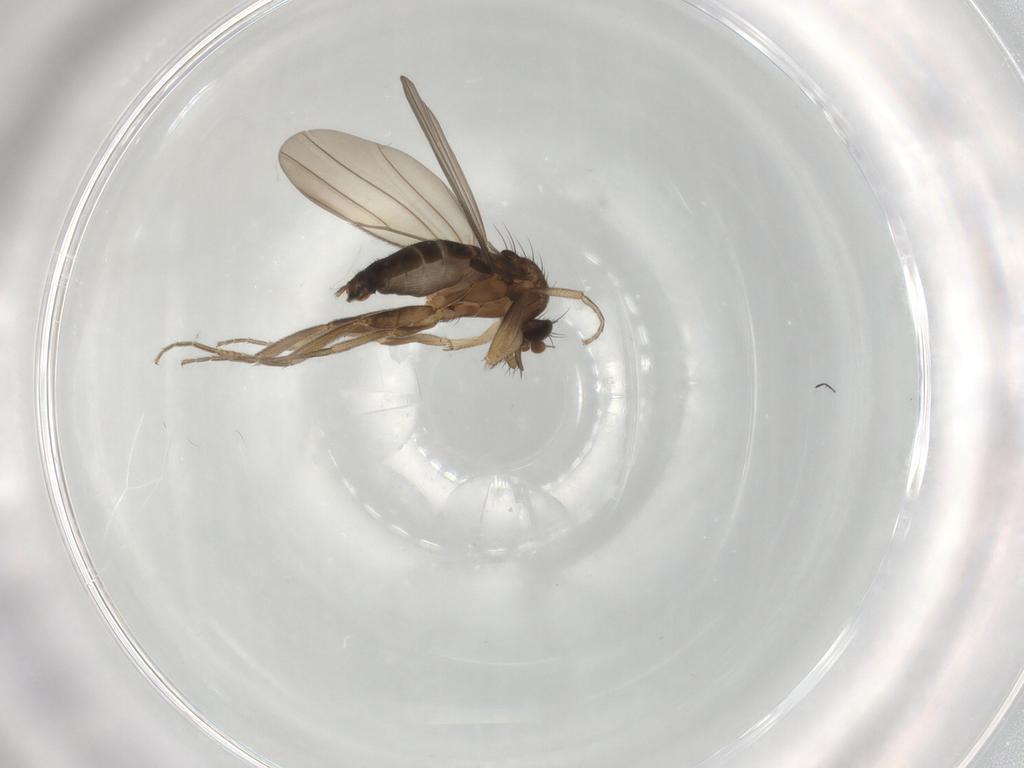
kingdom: Animalia
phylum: Arthropoda
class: Insecta
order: Diptera
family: Phoridae
